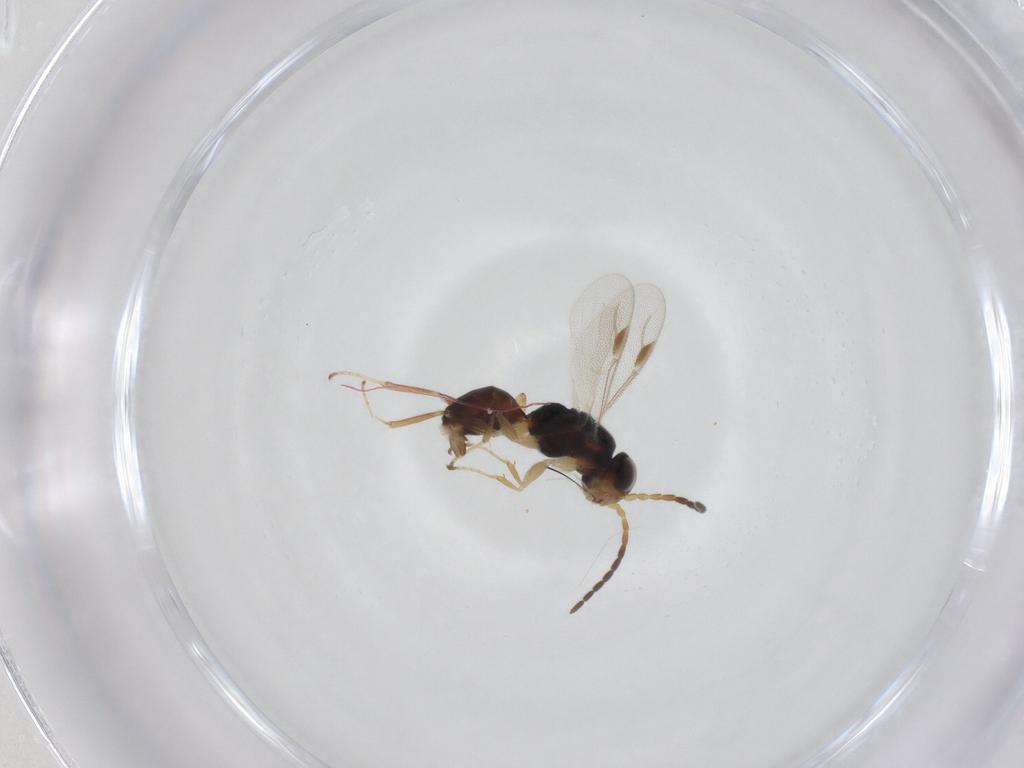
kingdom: Animalia
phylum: Arthropoda
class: Insecta
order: Hymenoptera
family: Dryinidae
